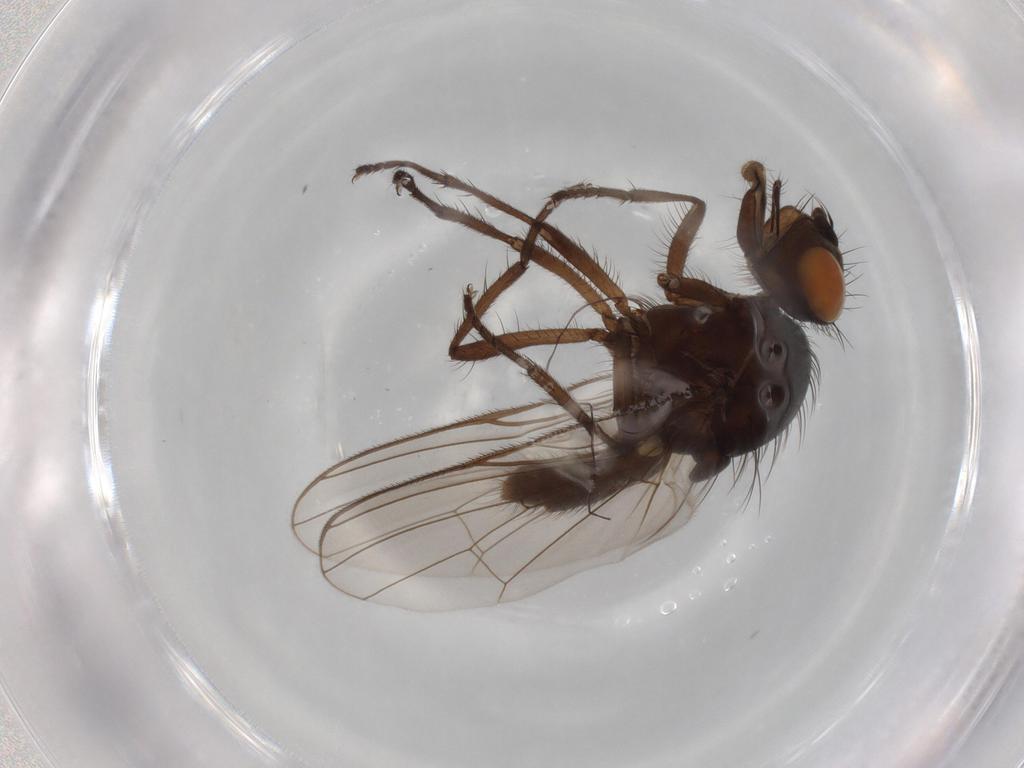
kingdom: Animalia
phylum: Arthropoda
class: Insecta
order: Diptera
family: Anthomyiidae
